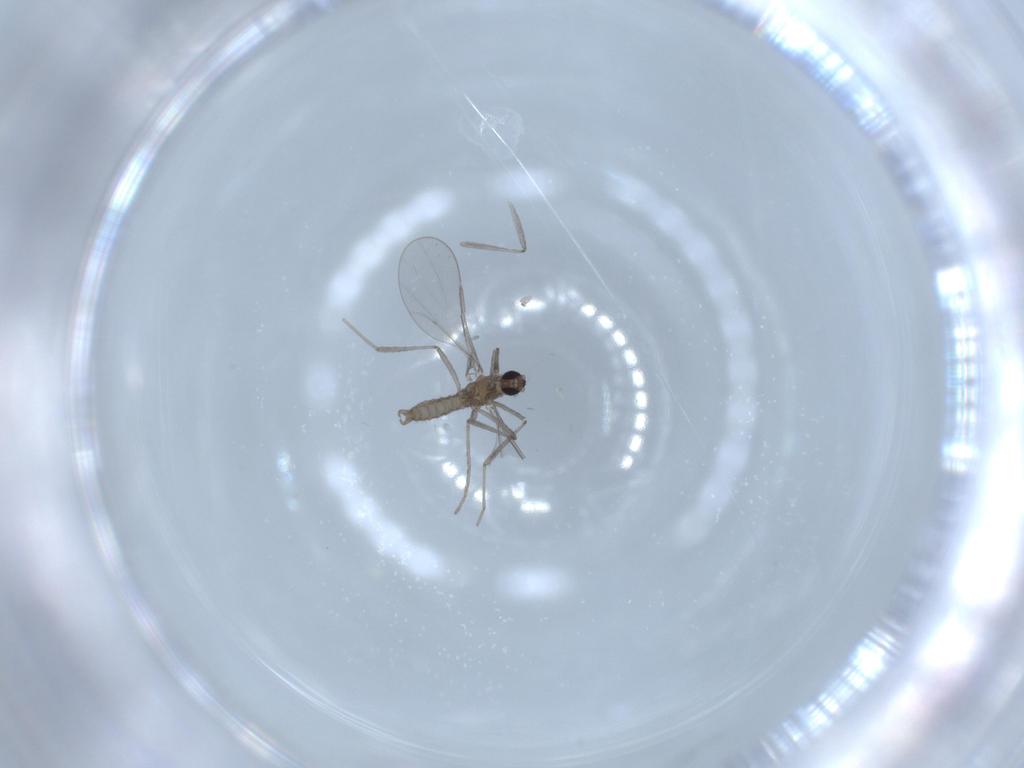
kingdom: Animalia
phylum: Arthropoda
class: Insecta
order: Diptera
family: Cecidomyiidae
